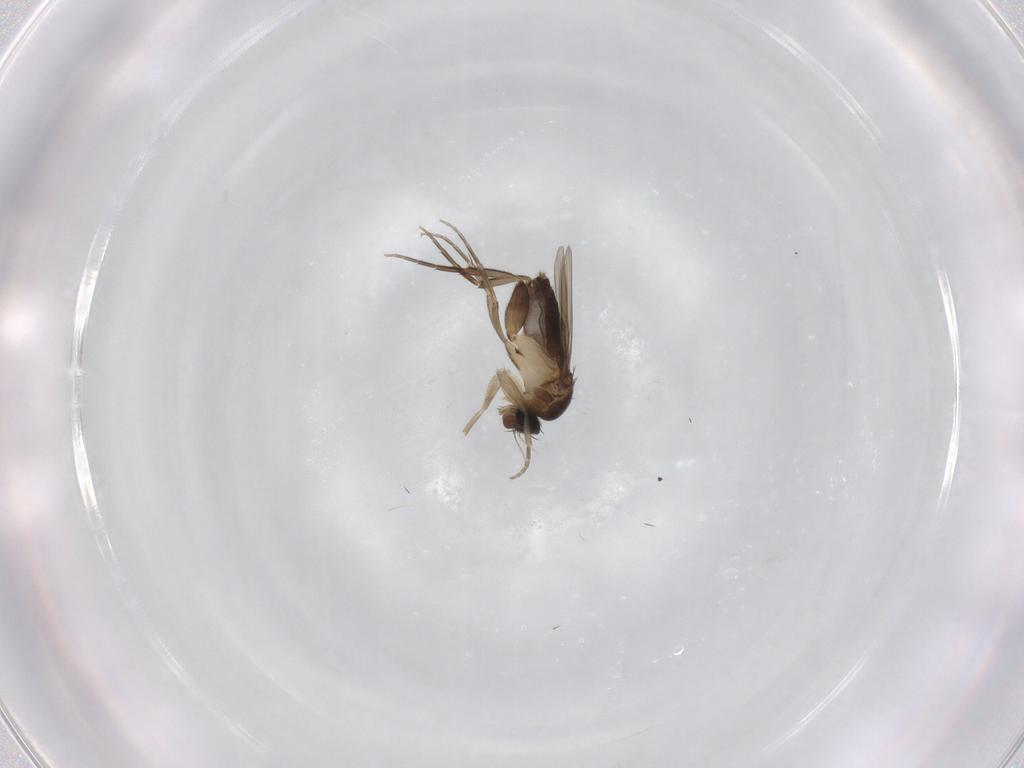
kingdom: Animalia
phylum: Arthropoda
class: Insecta
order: Diptera
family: Phoridae
